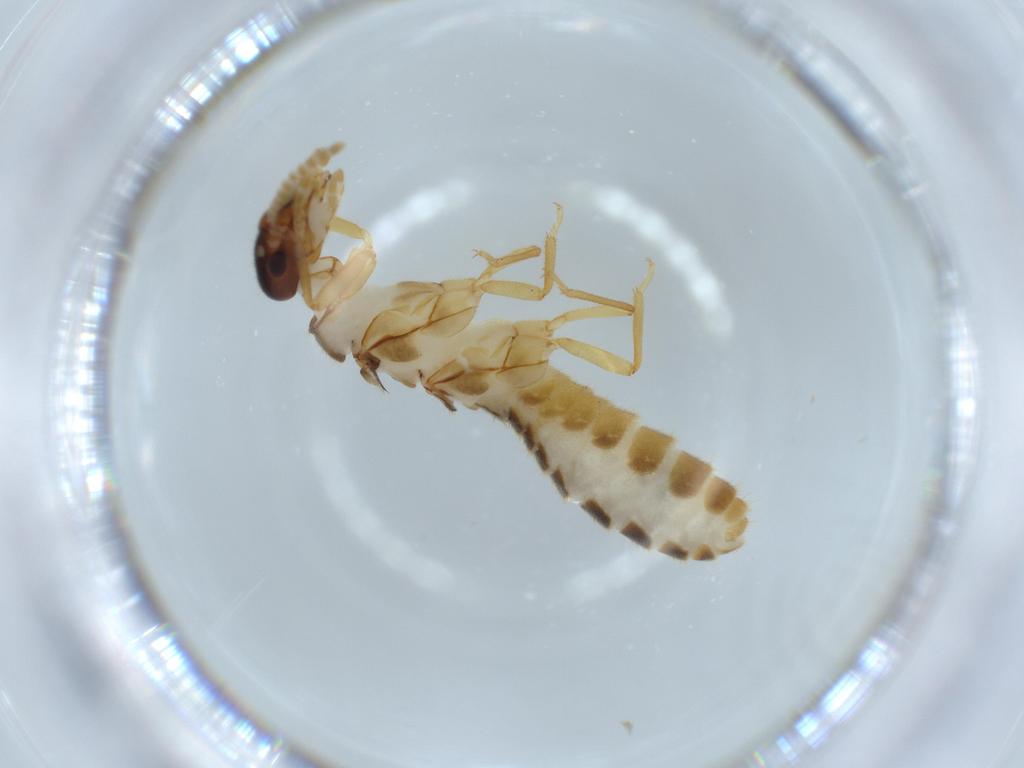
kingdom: Animalia
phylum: Arthropoda
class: Insecta
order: Blattodea
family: Termitidae
